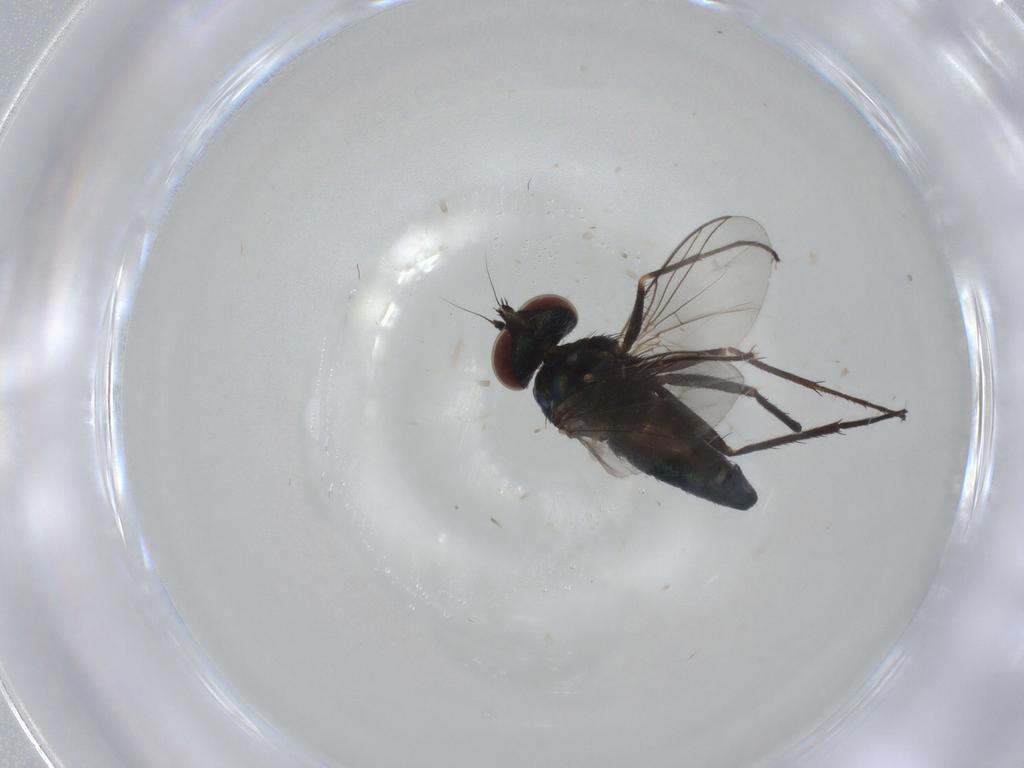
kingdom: Animalia
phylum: Arthropoda
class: Insecta
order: Diptera
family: Dolichopodidae
